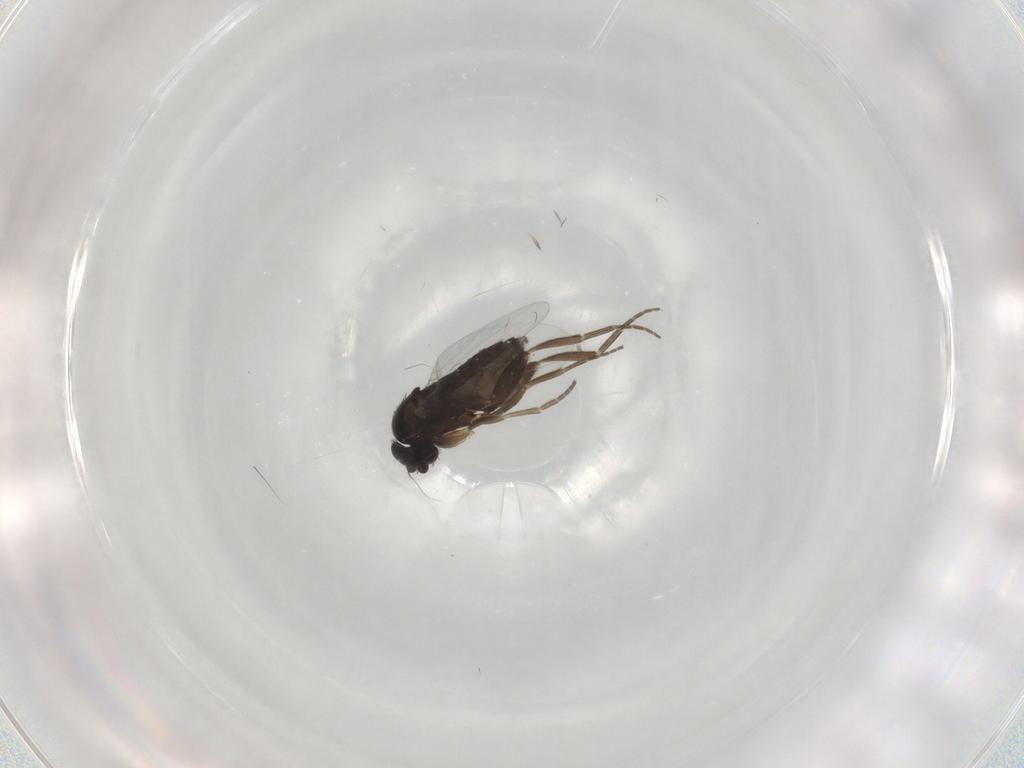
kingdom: Animalia
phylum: Arthropoda
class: Insecta
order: Diptera
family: Phoridae
